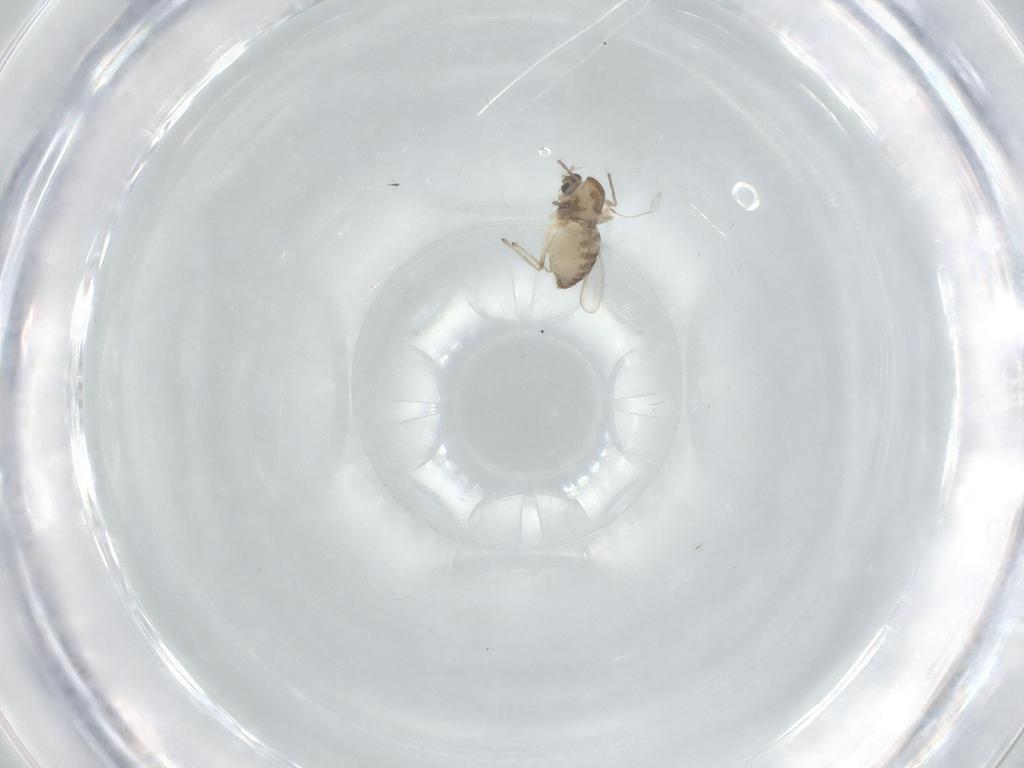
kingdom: Animalia
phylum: Arthropoda
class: Insecta
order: Diptera
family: Chironomidae
